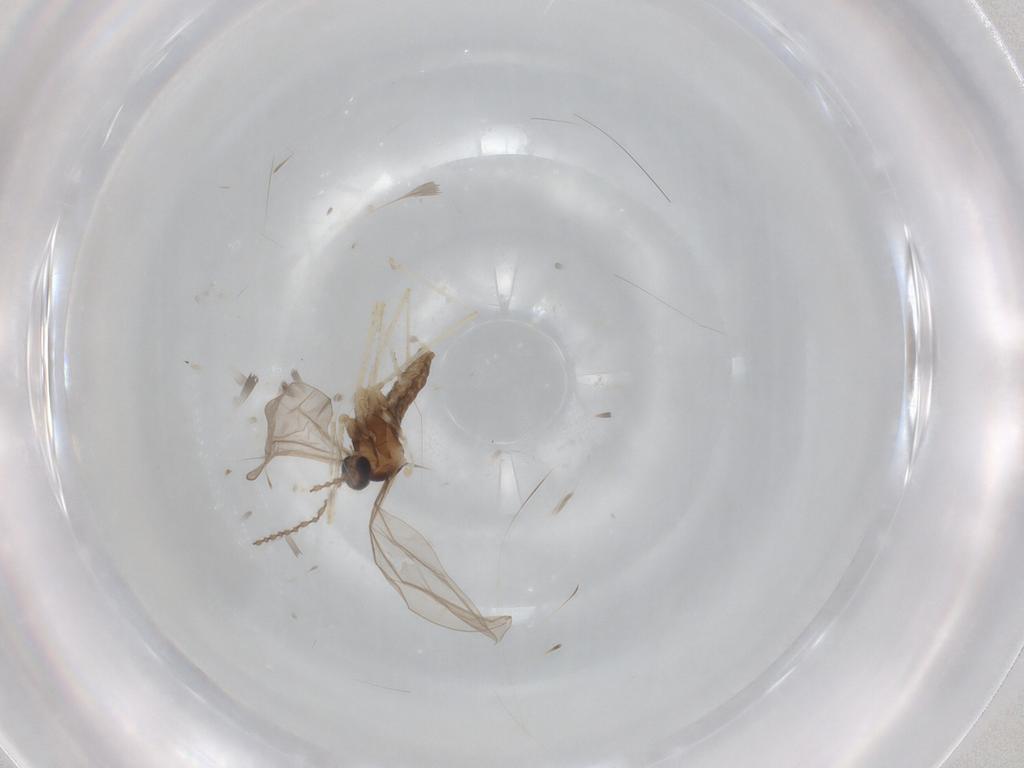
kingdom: Animalia
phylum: Arthropoda
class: Insecta
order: Diptera
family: Cecidomyiidae
